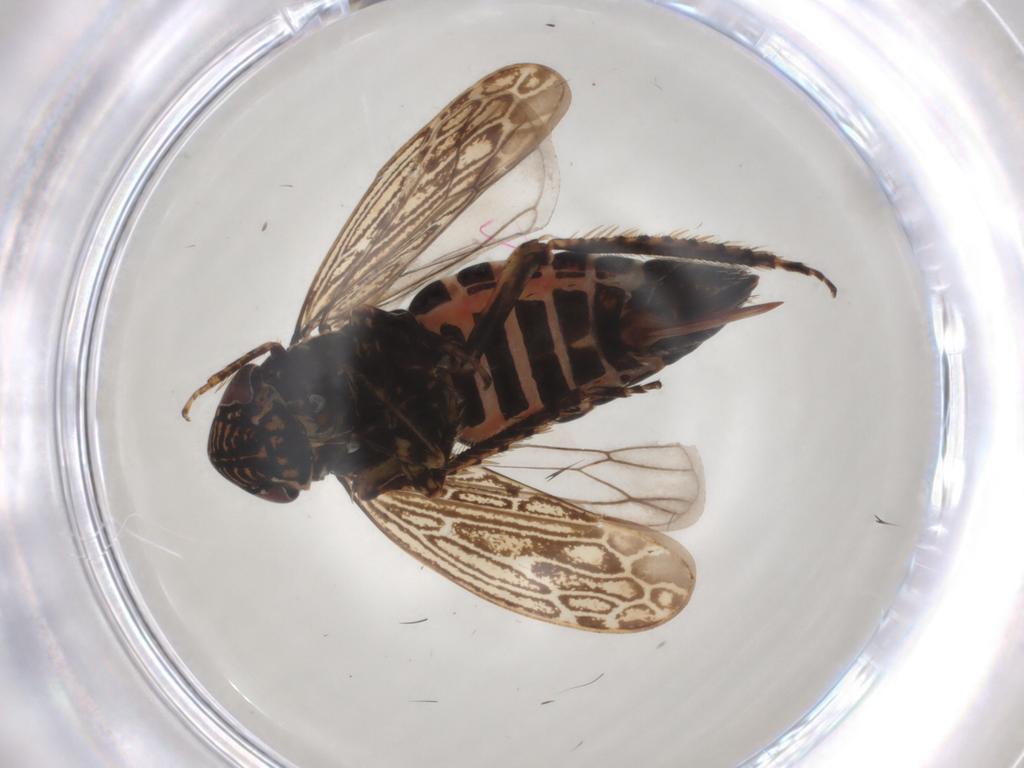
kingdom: Animalia
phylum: Arthropoda
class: Insecta
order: Hemiptera
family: Cicadellidae
